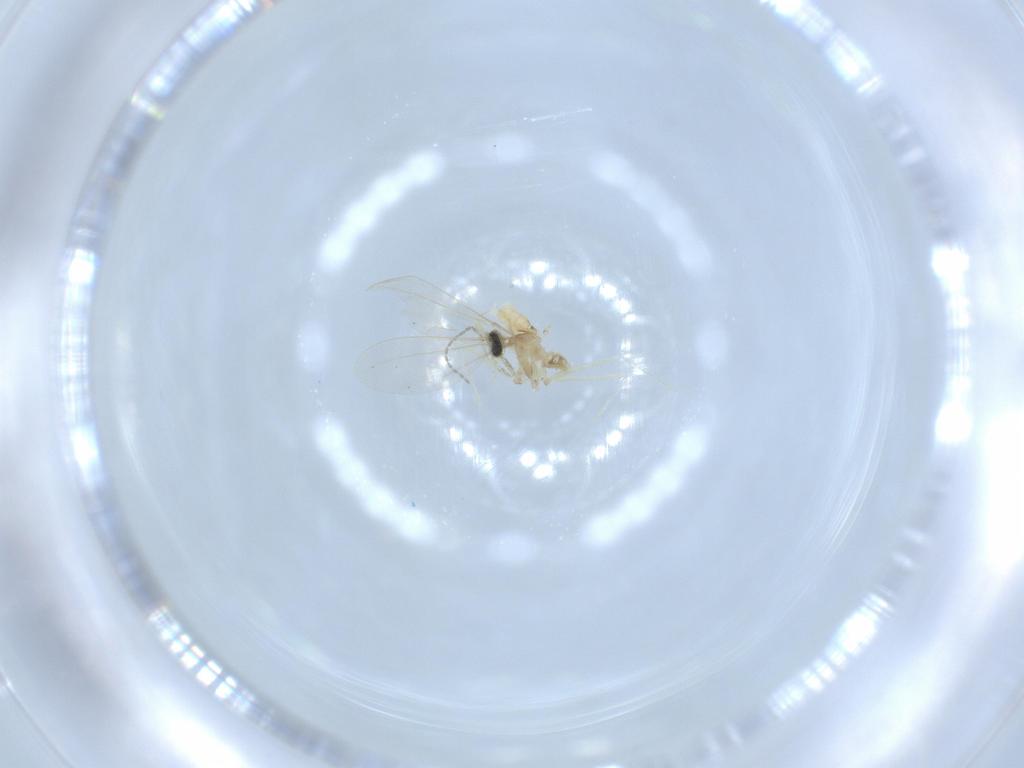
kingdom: Animalia
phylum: Arthropoda
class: Insecta
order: Diptera
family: Cecidomyiidae
